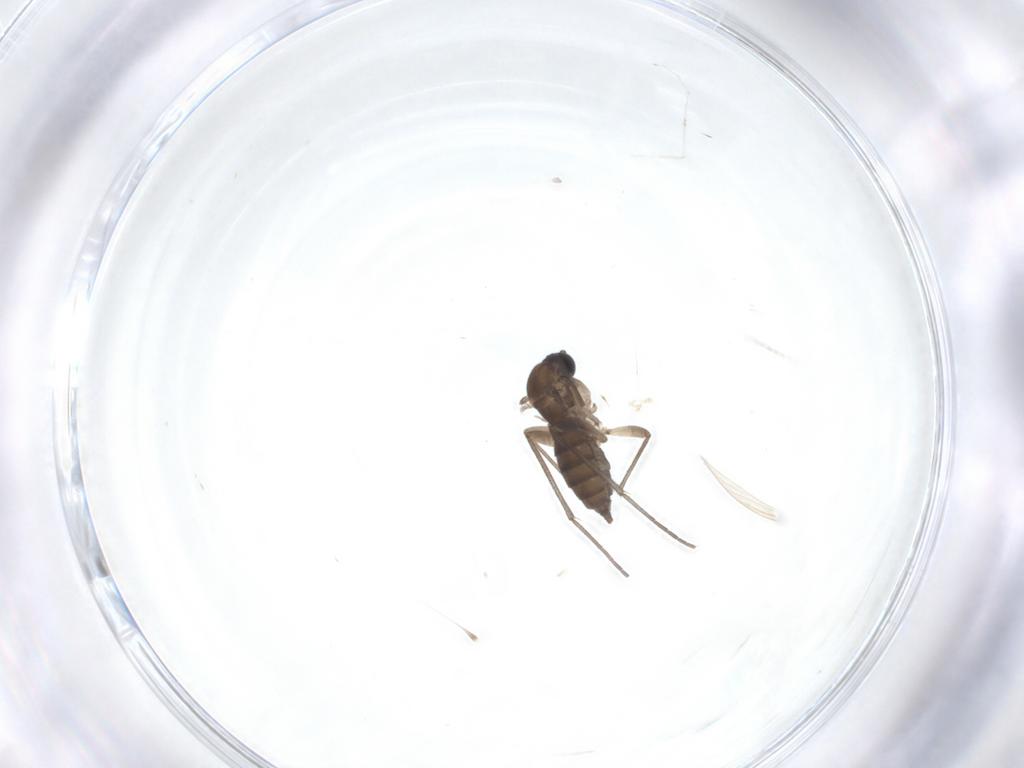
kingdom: Animalia
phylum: Arthropoda
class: Insecta
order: Diptera
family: Sciaridae
